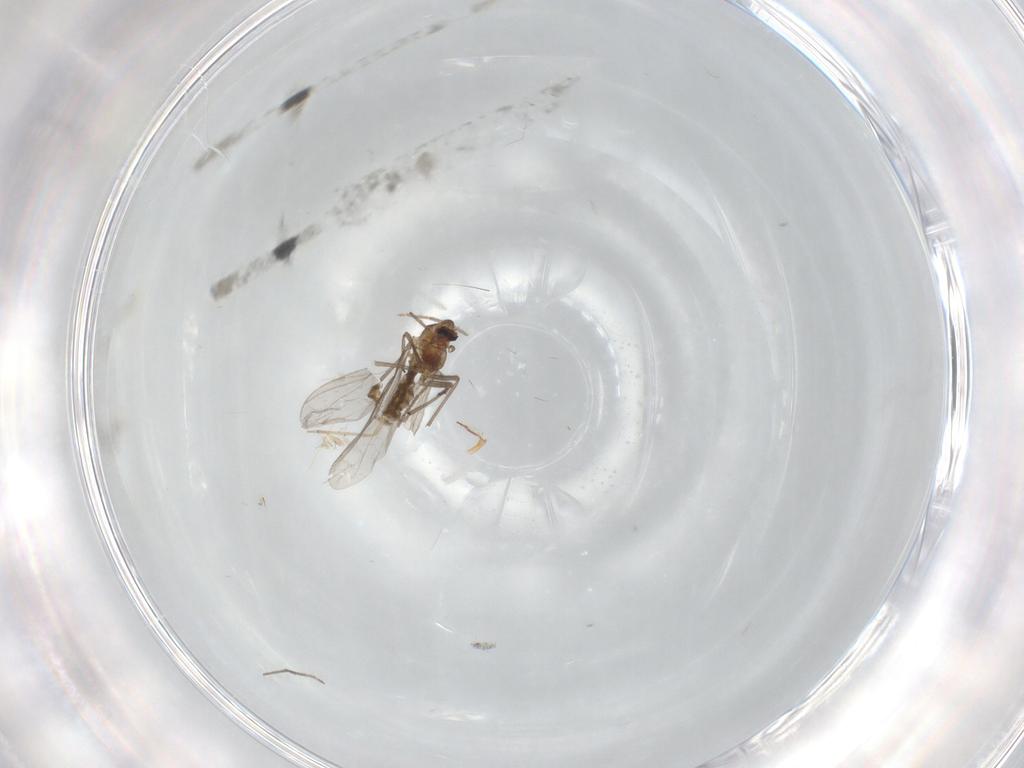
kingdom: Animalia
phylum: Arthropoda
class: Insecta
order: Diptera
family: Chironomidae
